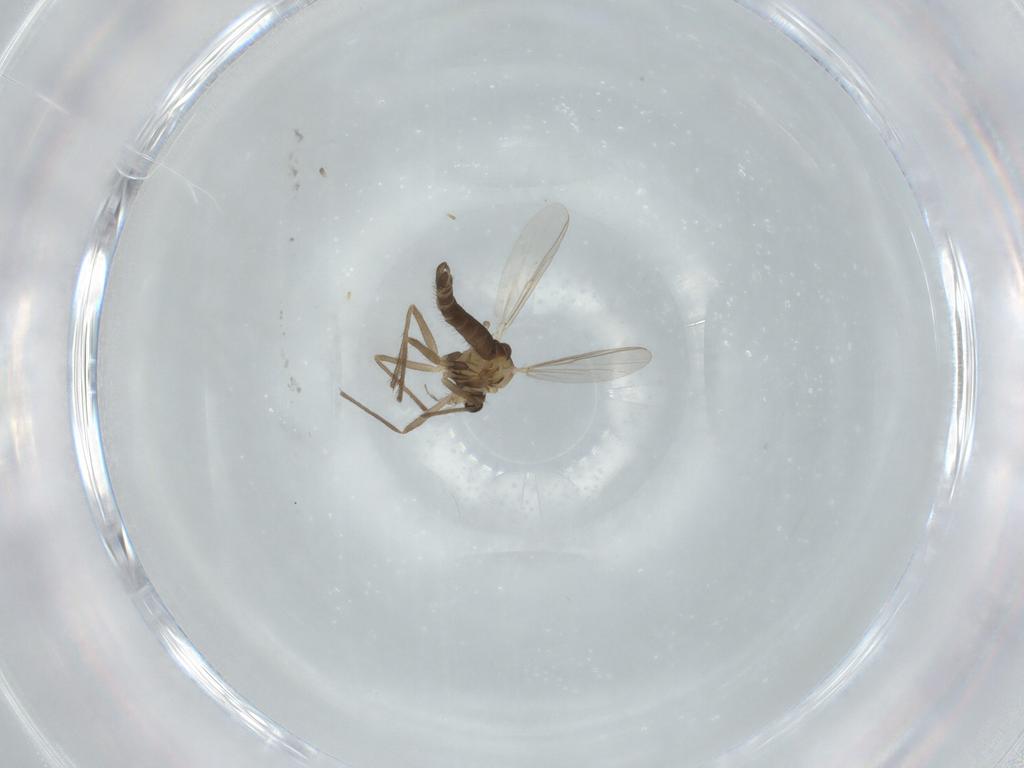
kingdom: Animalia
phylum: Arthropoda
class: Insecta
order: Diptera
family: Chironomidae
